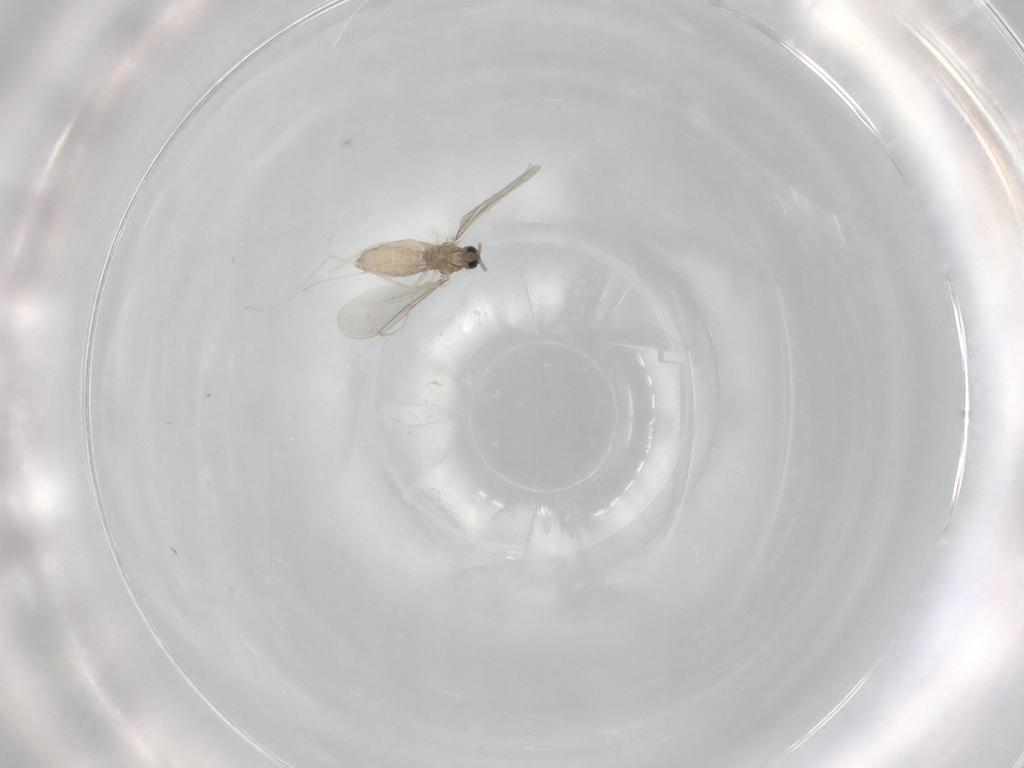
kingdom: Animalia
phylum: Arthropoda
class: Insecta
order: Diptera
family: Cecidomyiidae
